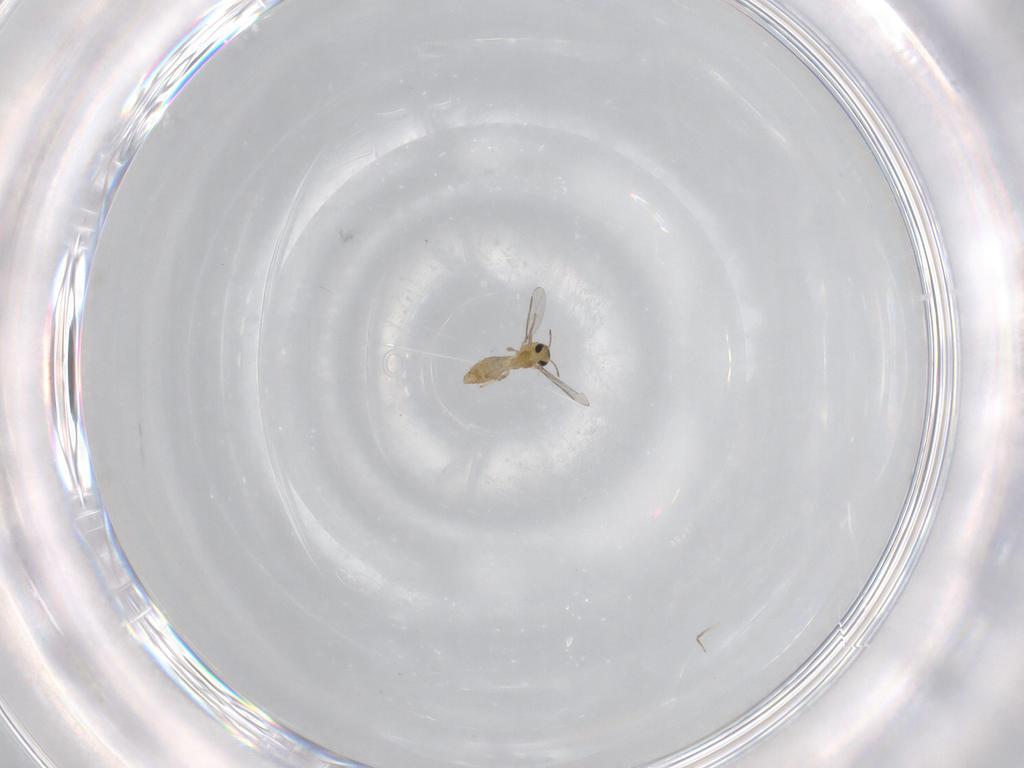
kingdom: Animalia
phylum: Arthropoda
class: Insecta
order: Diptera
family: Chironomidae
